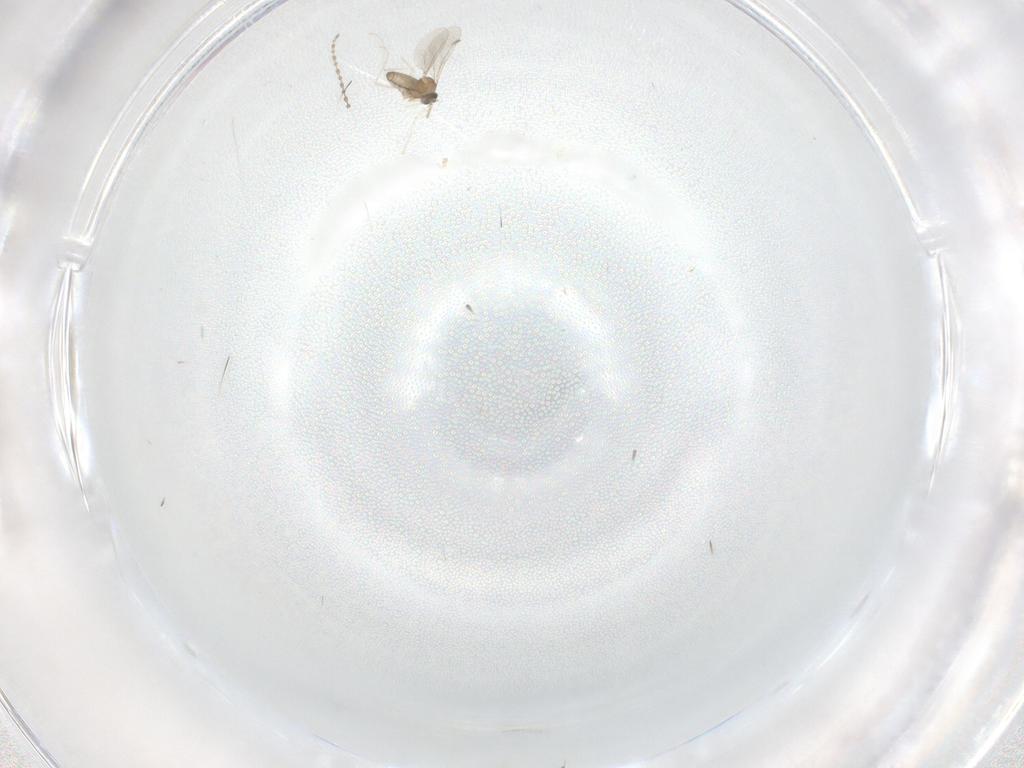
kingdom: Animalia
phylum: Arthropoda
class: Insecta
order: Diptera
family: Cecidomyiidae
